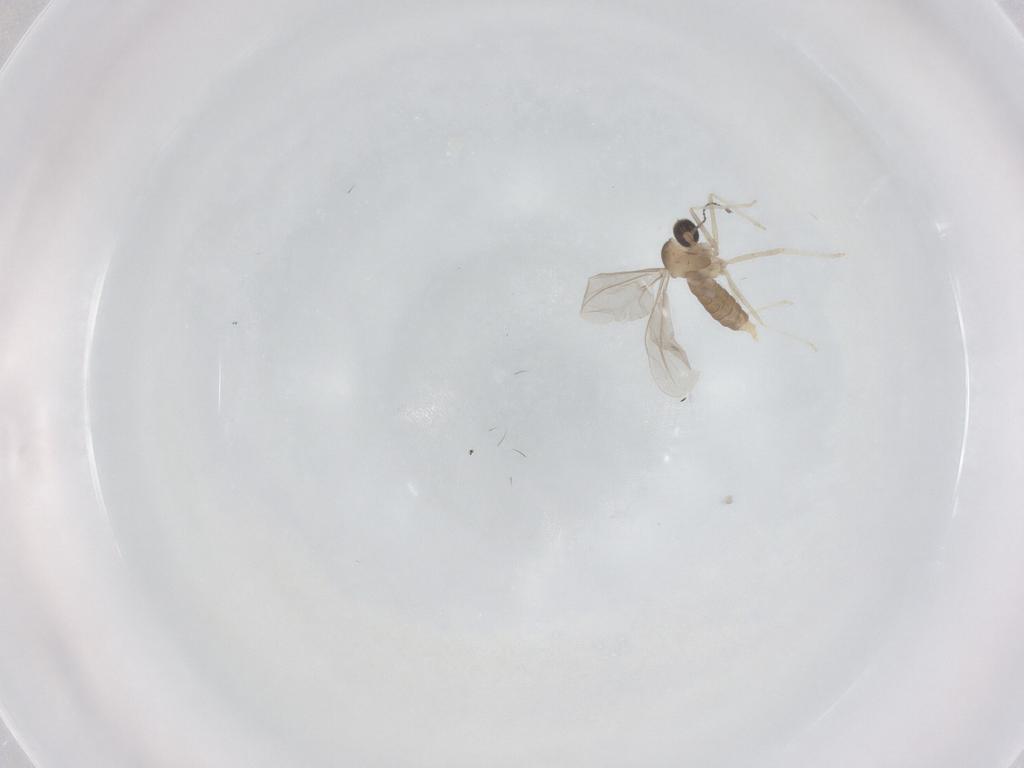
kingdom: Animalia
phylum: Arthropoda
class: Insecta
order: Diptera
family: Cecidomyiidae
